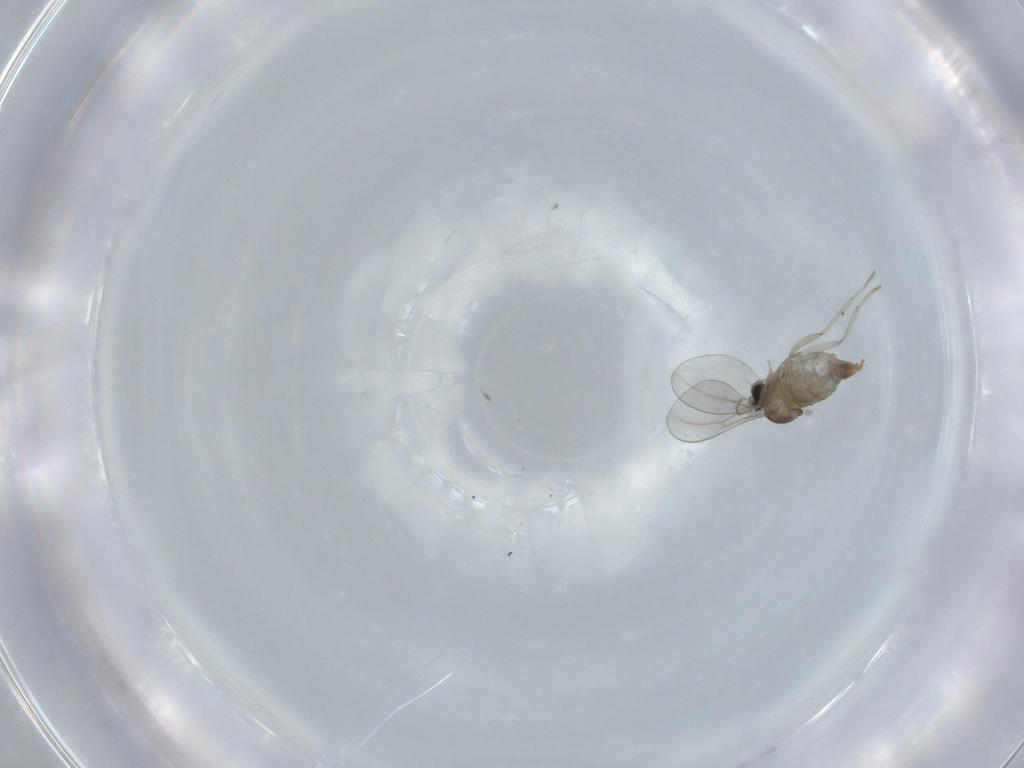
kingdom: Animalia
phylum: Arthropoda
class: Insecta
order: Diptera
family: Cecidomyiidae
